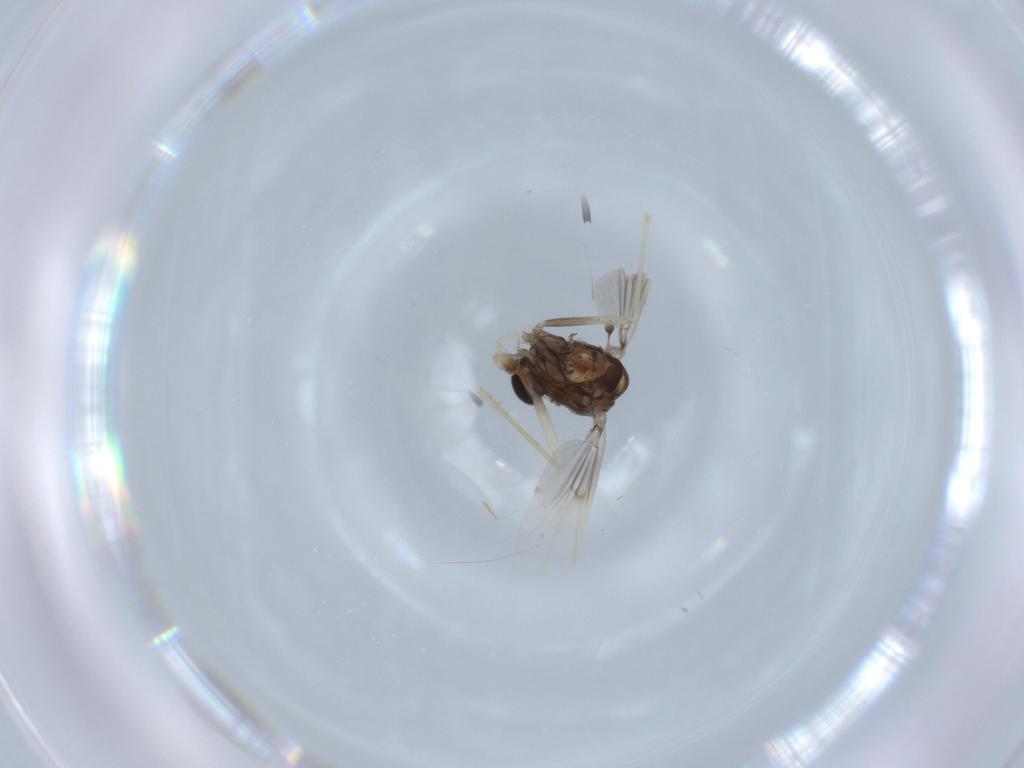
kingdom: Animalia
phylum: Arthropoda
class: Insecta
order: Diptera
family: Chironomidae
